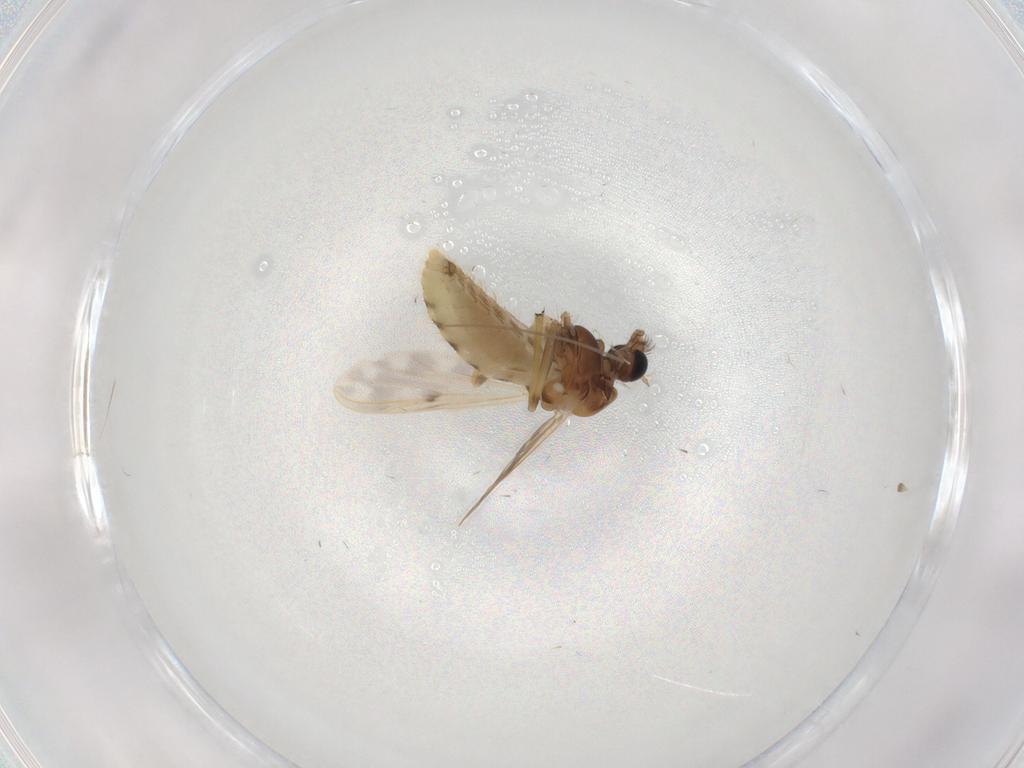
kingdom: Animalia
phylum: Arthropoda
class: Insecta
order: Diptera
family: Chironomidae
